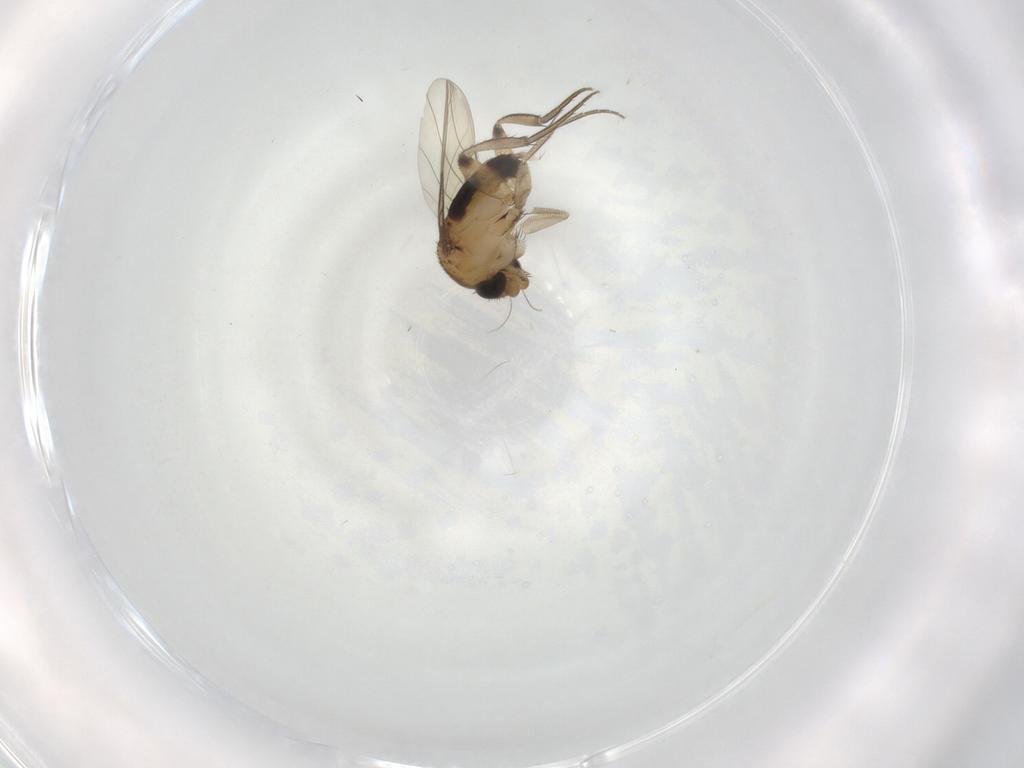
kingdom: Animalia
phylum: Arthropoda
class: Insecta
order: Diptera
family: Phoridae
